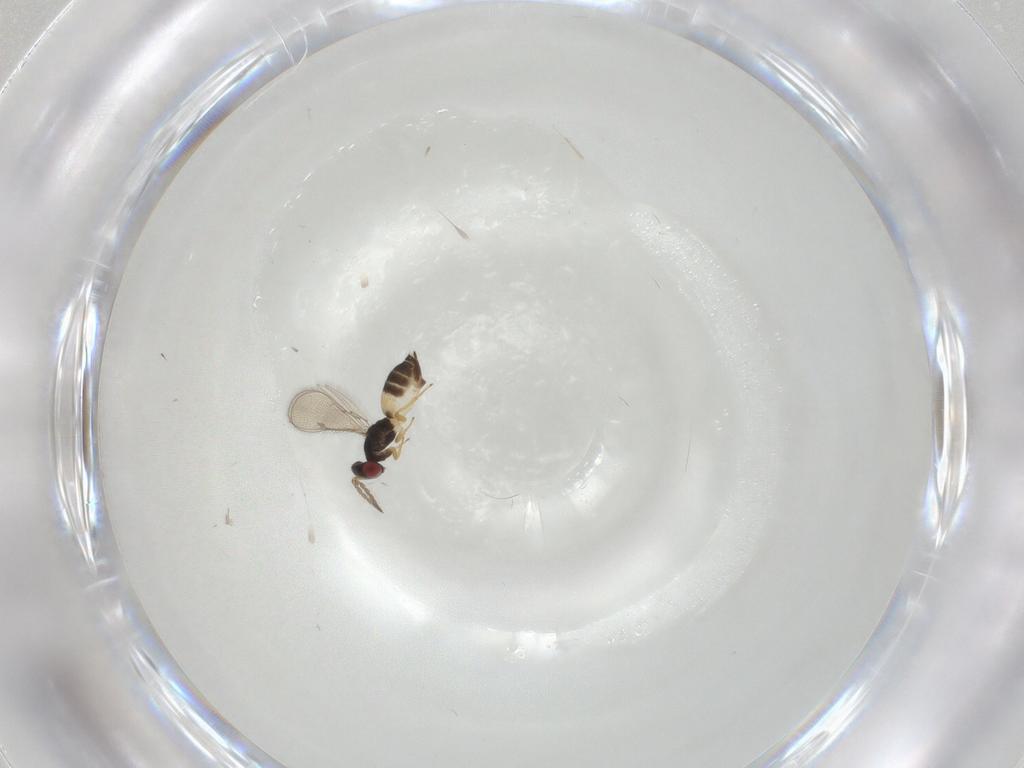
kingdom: Animalia
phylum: Arthropoda
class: Insecta
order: Hymenoptera
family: Eulophidae
